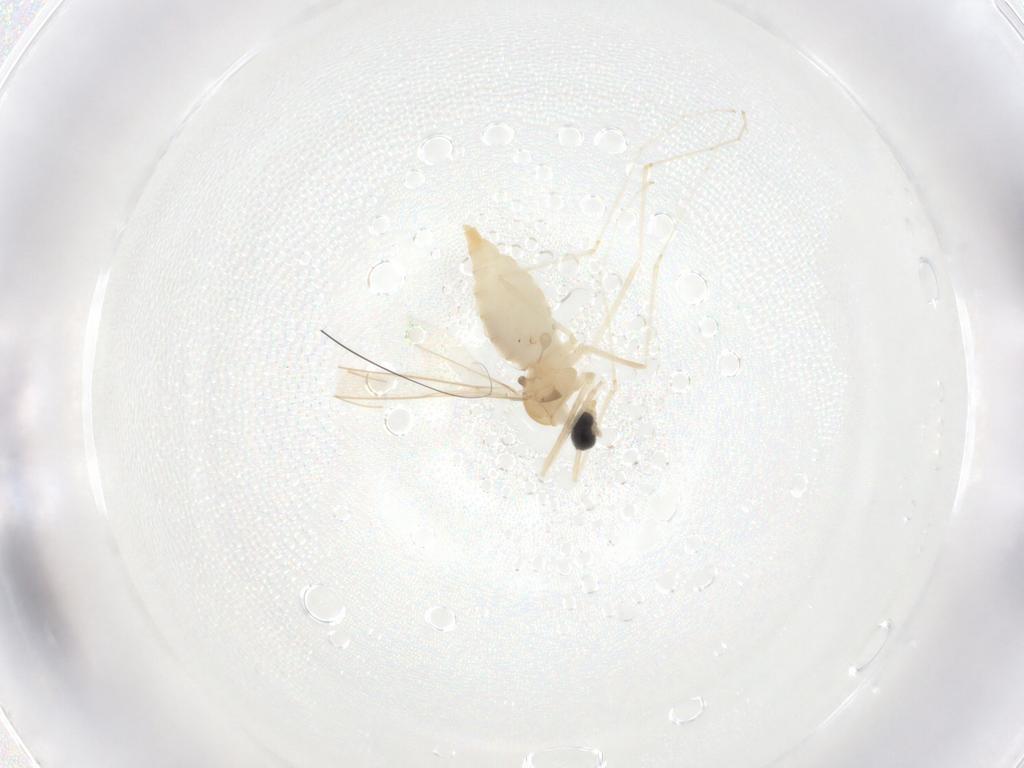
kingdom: Animalia
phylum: Arthropoda
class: Insecta
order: Diptera
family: Cecidomyiidae
